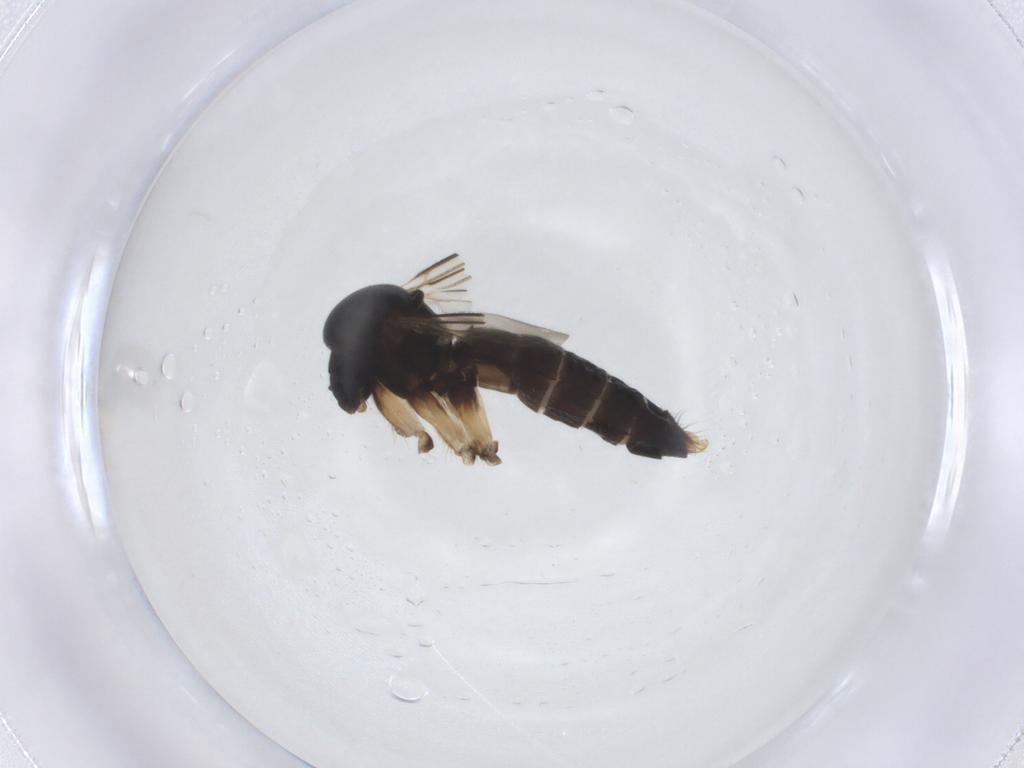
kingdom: Animalia
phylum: Arthropoda
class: Insecta
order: Diptera
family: Mycetophilidae
